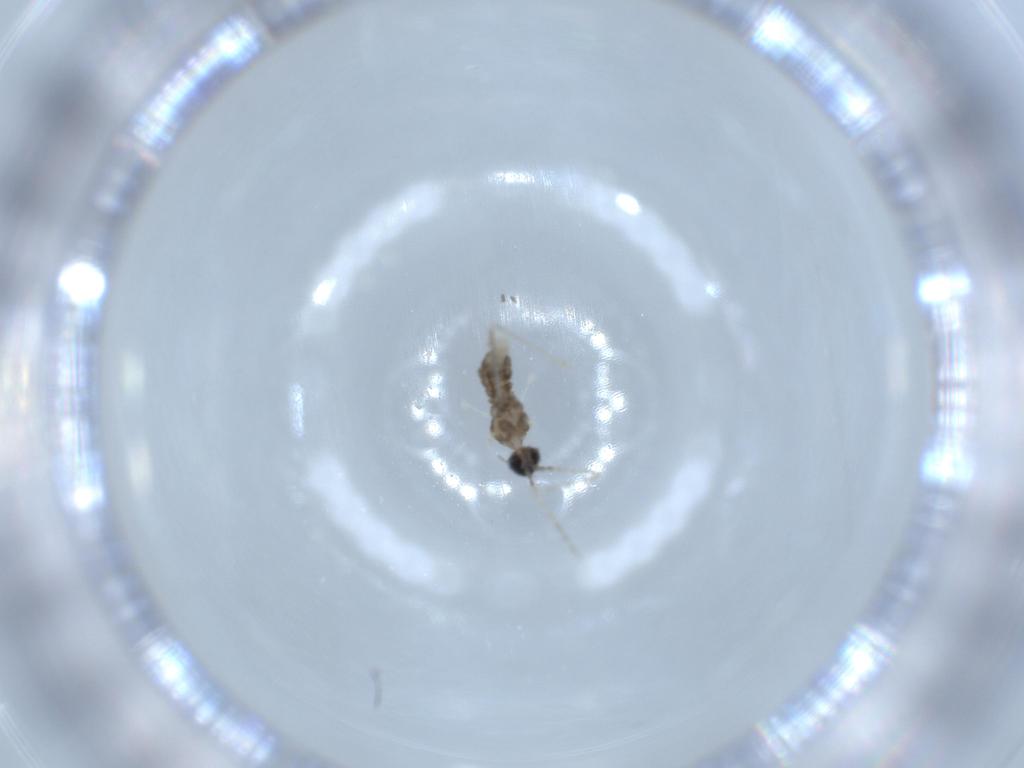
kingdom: Animalia
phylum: Arthropoda
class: Insecta
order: Diptera
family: Cecidomyiidae
